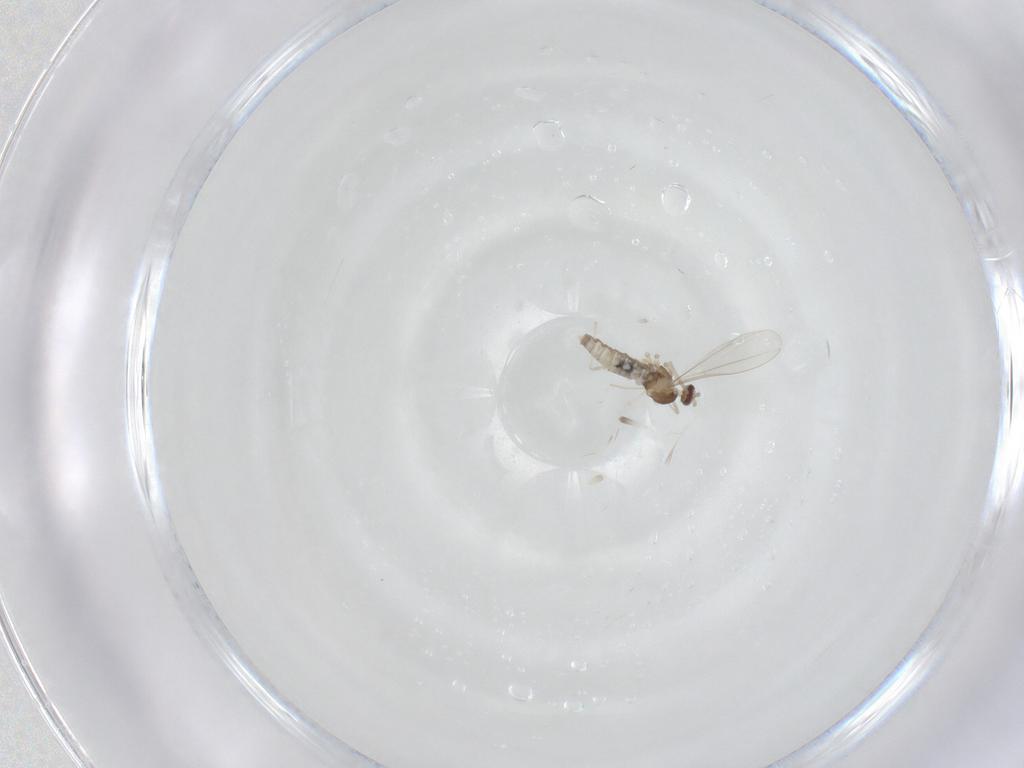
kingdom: Animalia
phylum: Arthropoda
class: Insecta
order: Diptera
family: Cecidomyiidae
